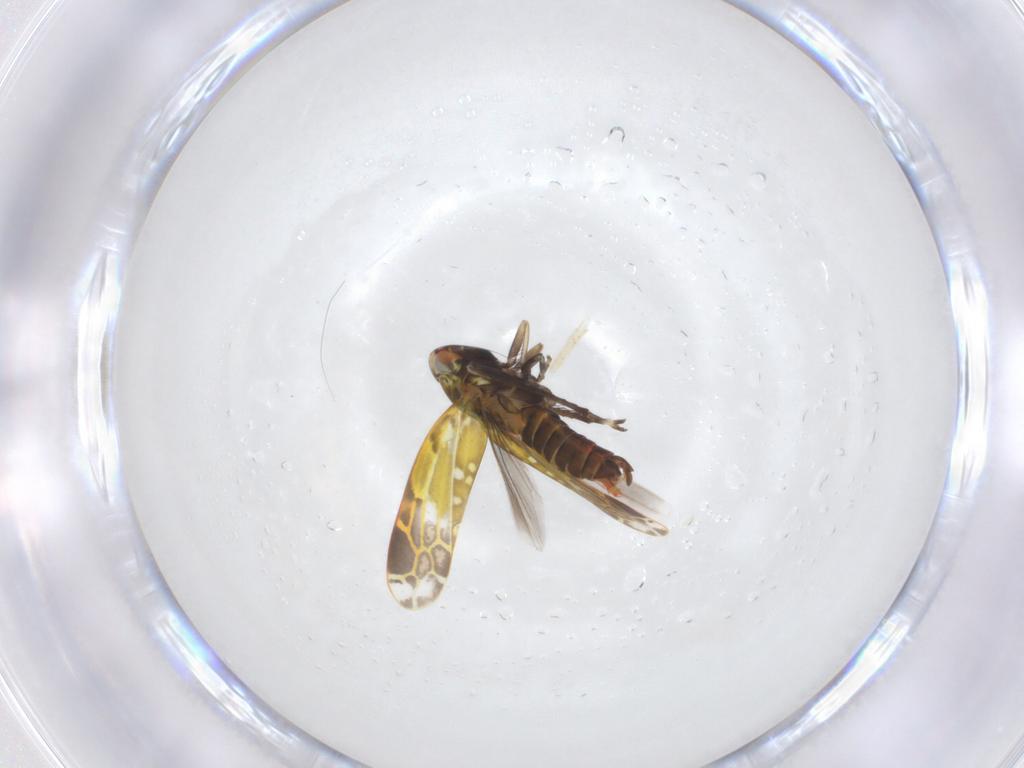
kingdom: Animalia
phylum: Arthropoda
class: Insecta
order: Hemiptera
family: Cicadellidae
